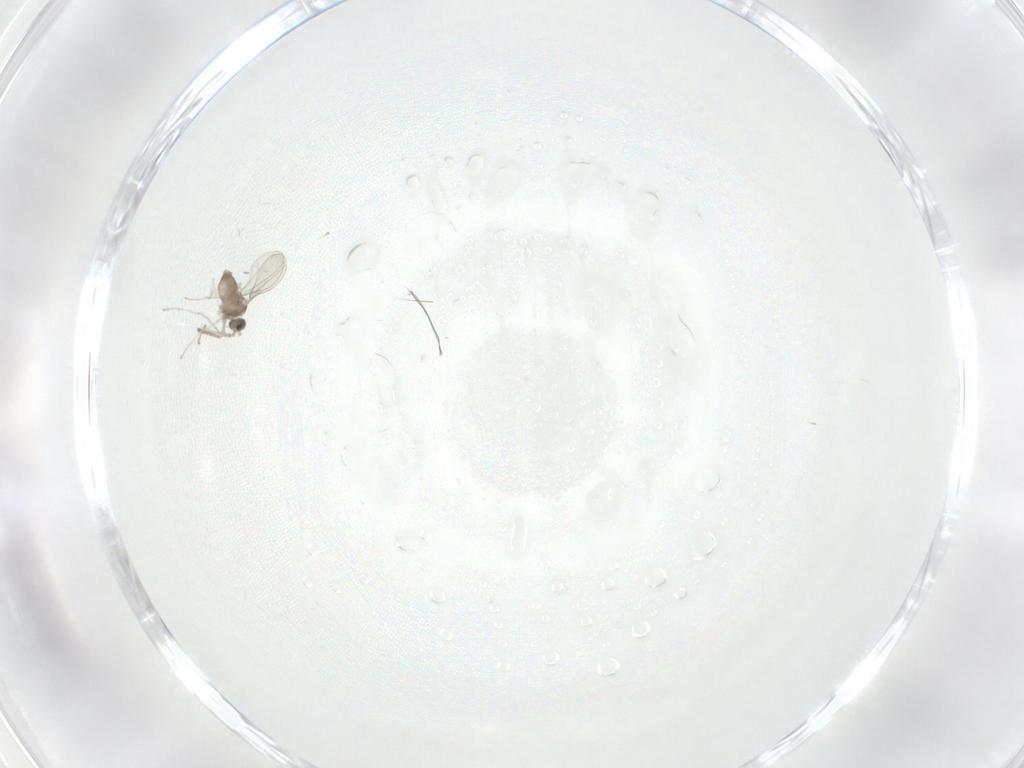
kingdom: Animalia
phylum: Arthropoda
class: Insecta
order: Diptera
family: Cecidomyiidae
